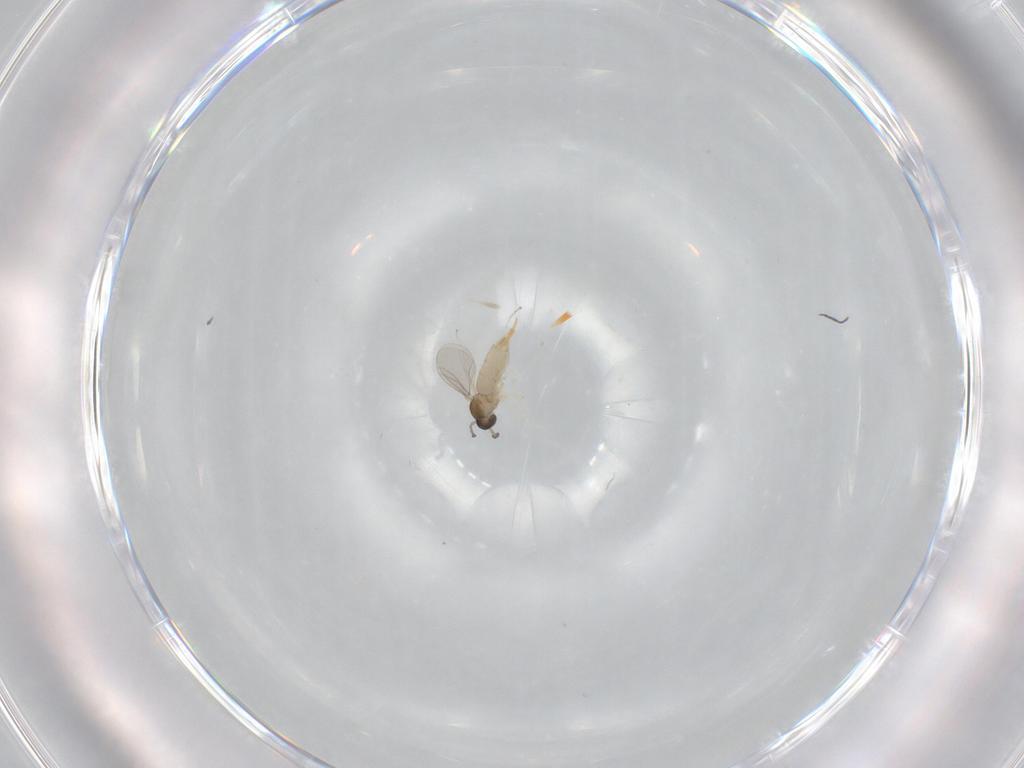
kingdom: Animalia
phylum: Arthropoda
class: Insecta
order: Diptera
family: Cecidomyiidae
